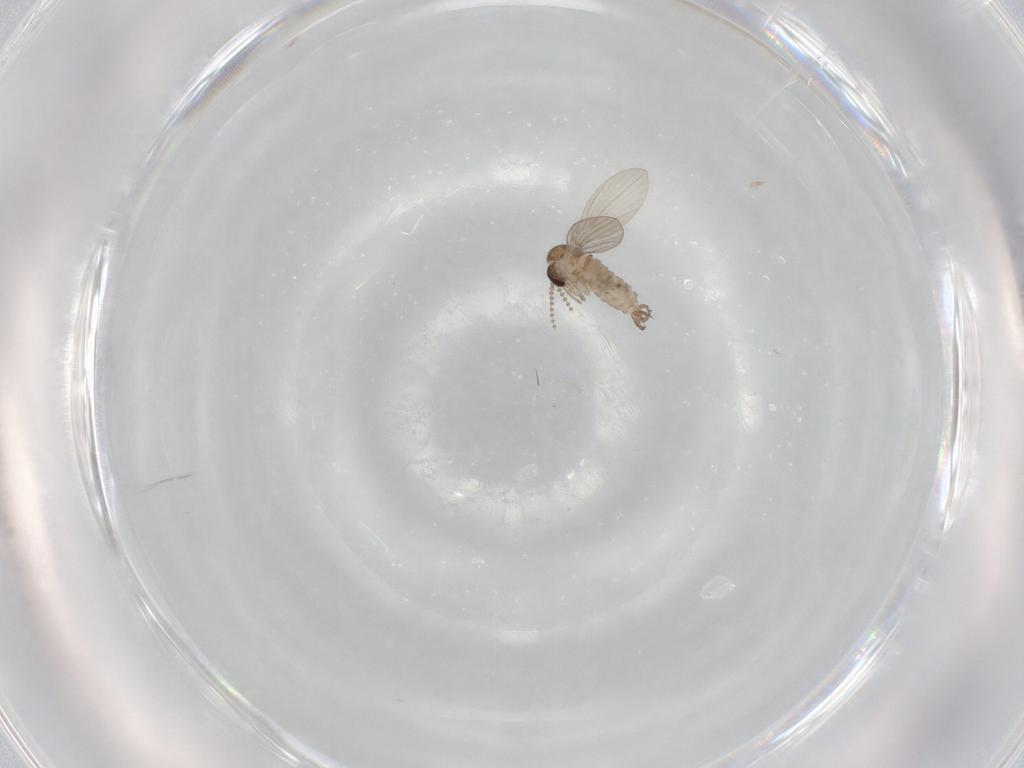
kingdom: Animalia
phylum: Arthropoda
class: Insecta
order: Diptera
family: Psychodidae
